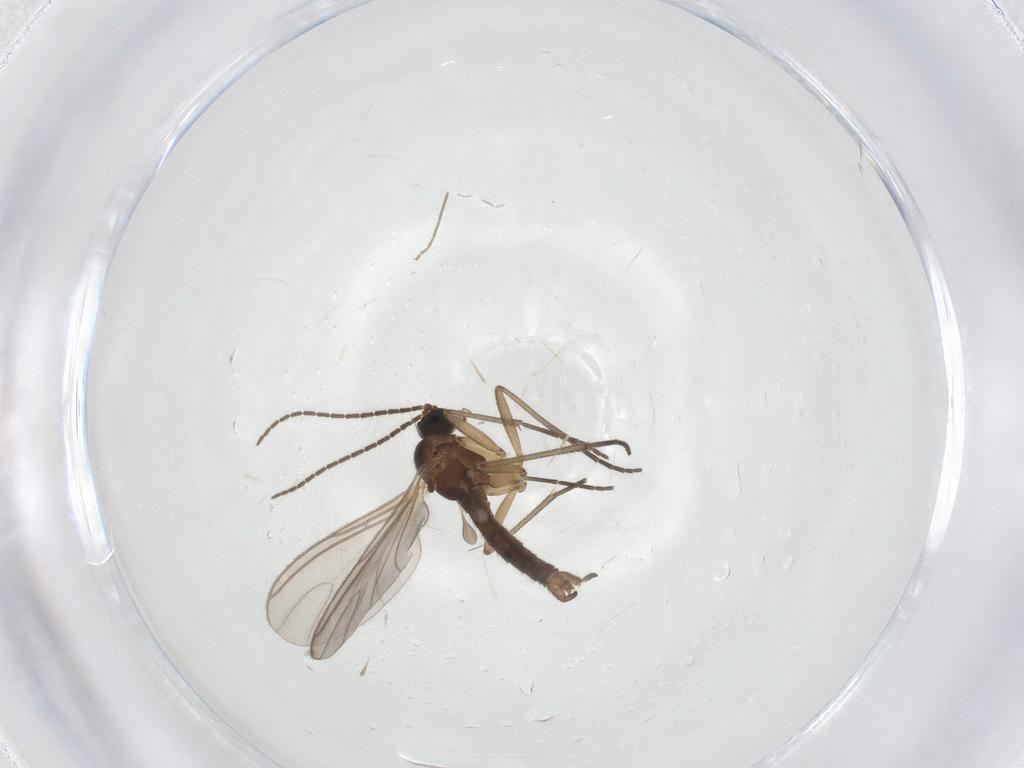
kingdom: Animalia
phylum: Arthropoda
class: Insecta
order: Diptera
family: Sciaridae
